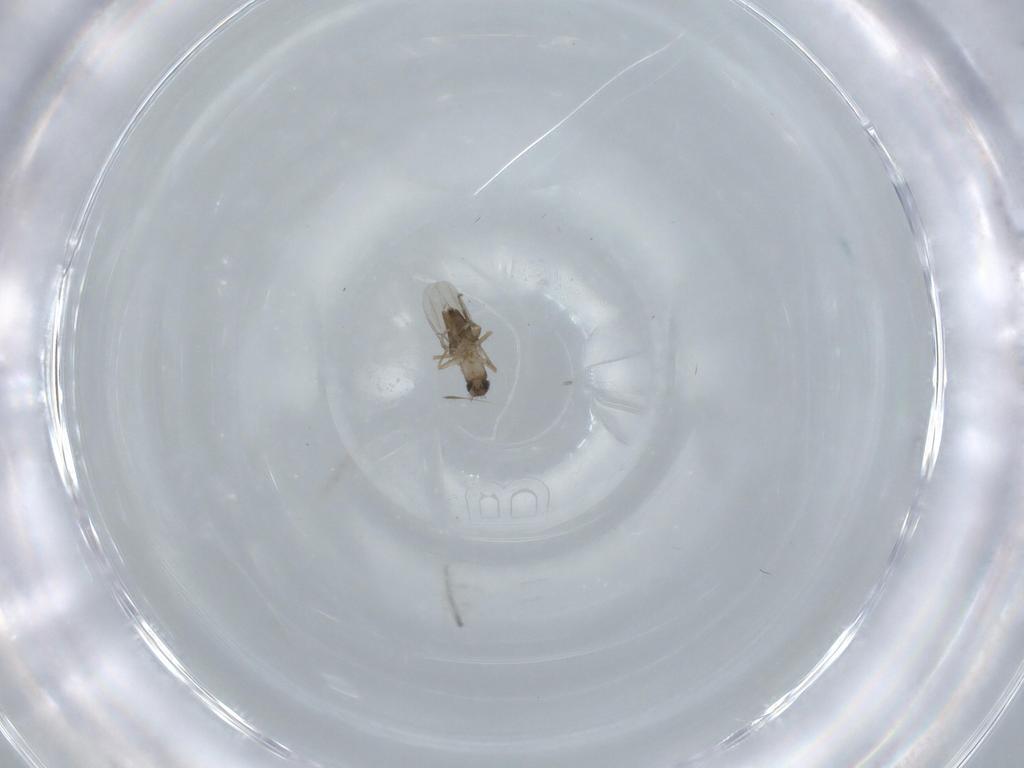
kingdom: Animalia
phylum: Arthropoda
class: Insecta
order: Diptera
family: Phoridae
